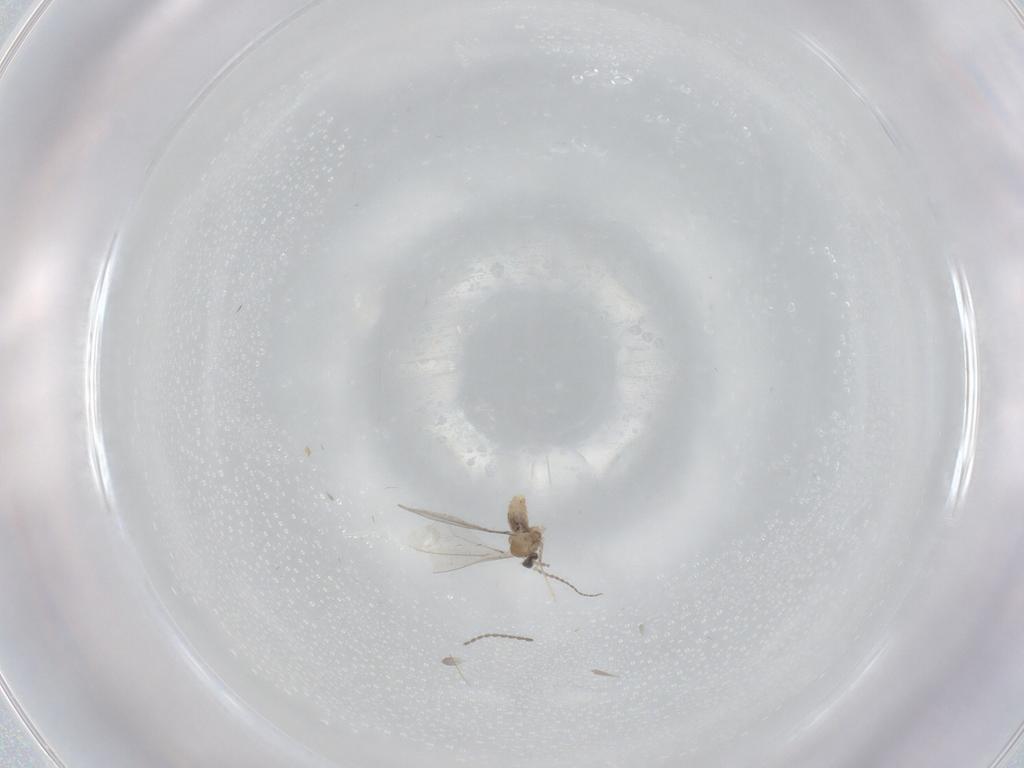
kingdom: Animalia
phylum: Arthropoda
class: Insecta
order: Diptera
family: Cecidomyiidae
